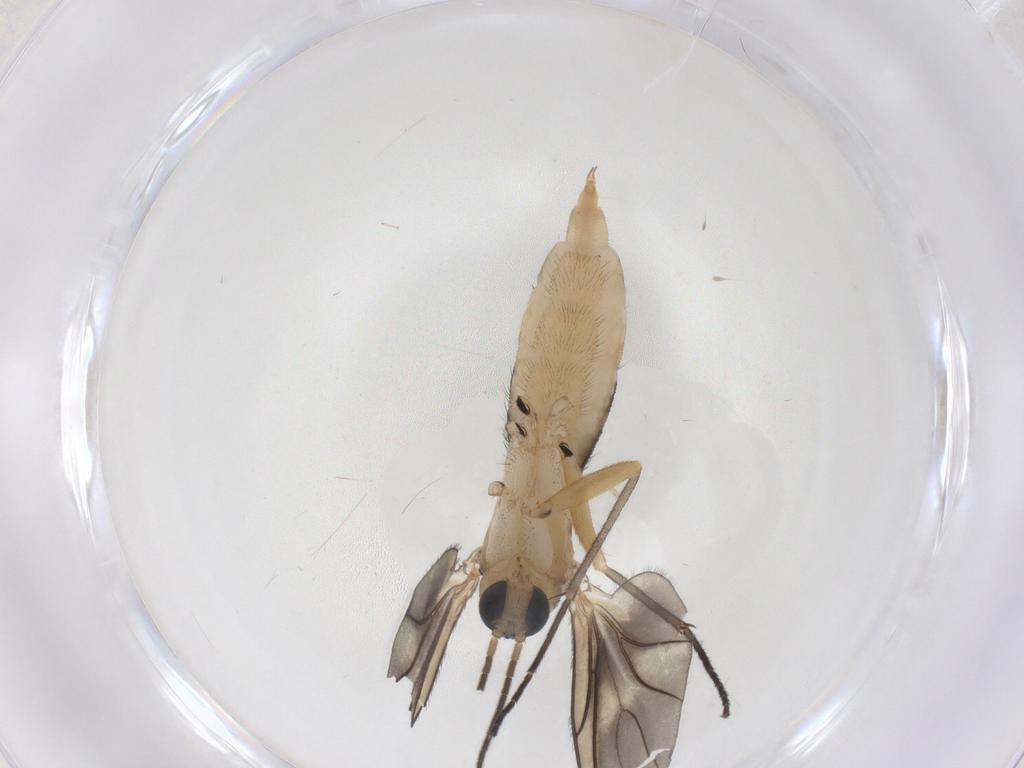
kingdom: Animalia
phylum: Arthropoda
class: Insecta
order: Diptera
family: Sciaridae
